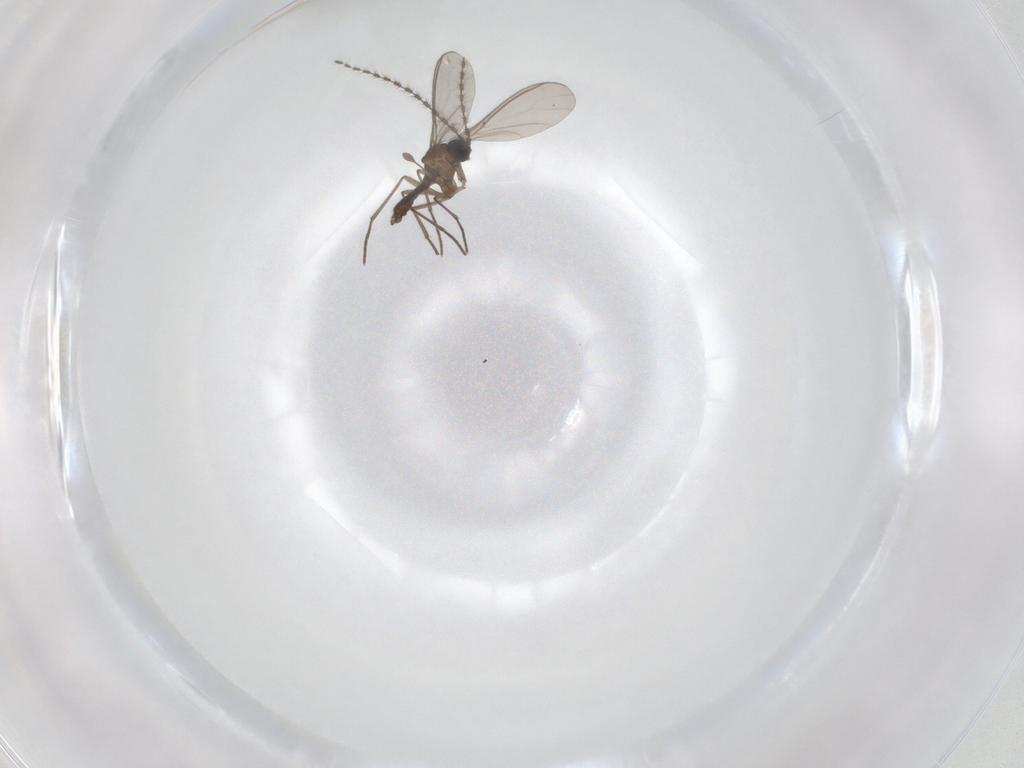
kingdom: Animalia
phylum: Arthropoda
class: Insecta
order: Diptera
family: Sciaridae
